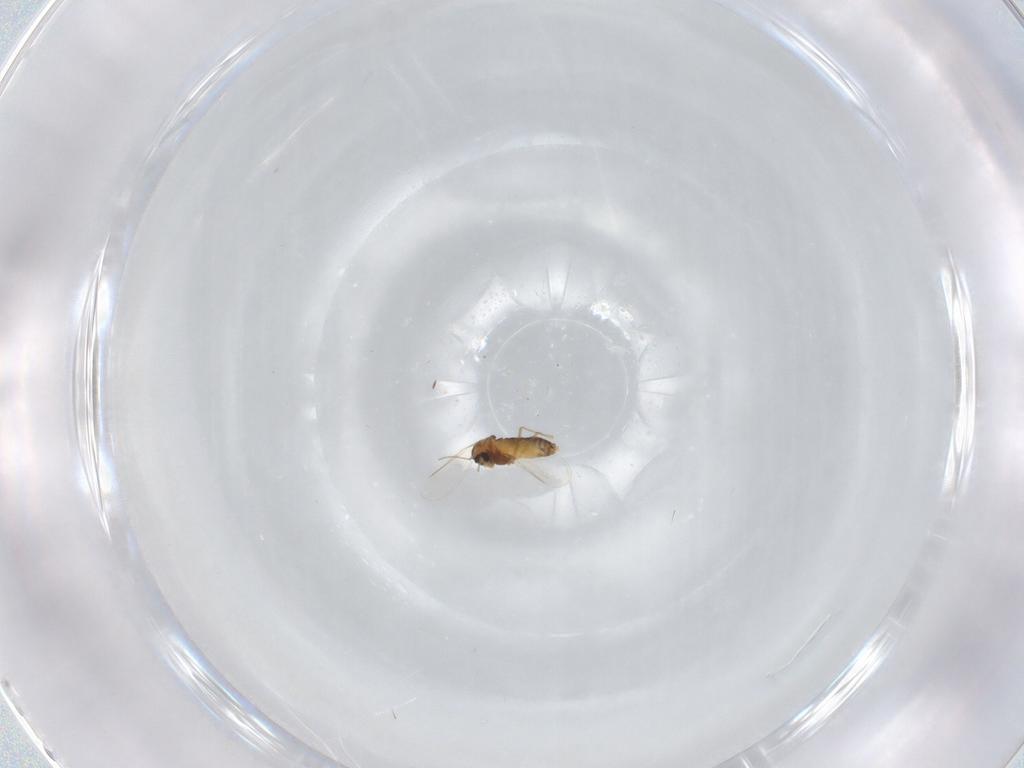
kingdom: Animalia
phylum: Arthropoda
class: Insecta
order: Diptera
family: Chironomidae
